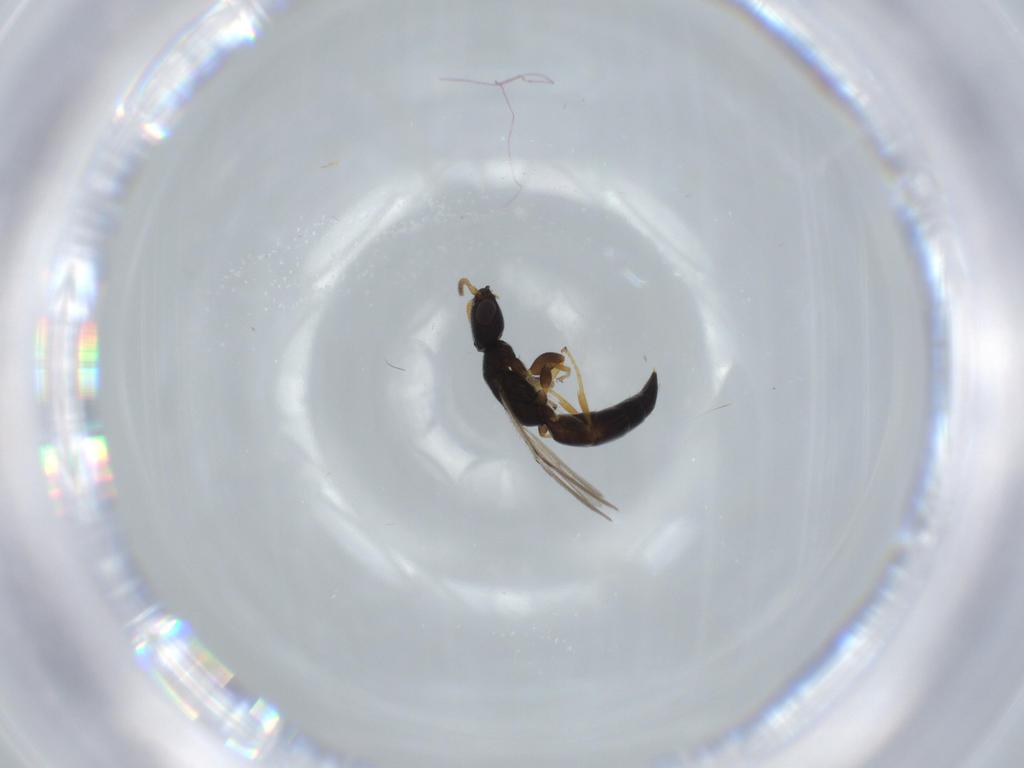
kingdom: Animalia
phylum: Arthropoda
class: Insecta
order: Hymenoptera
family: Bethylidae
